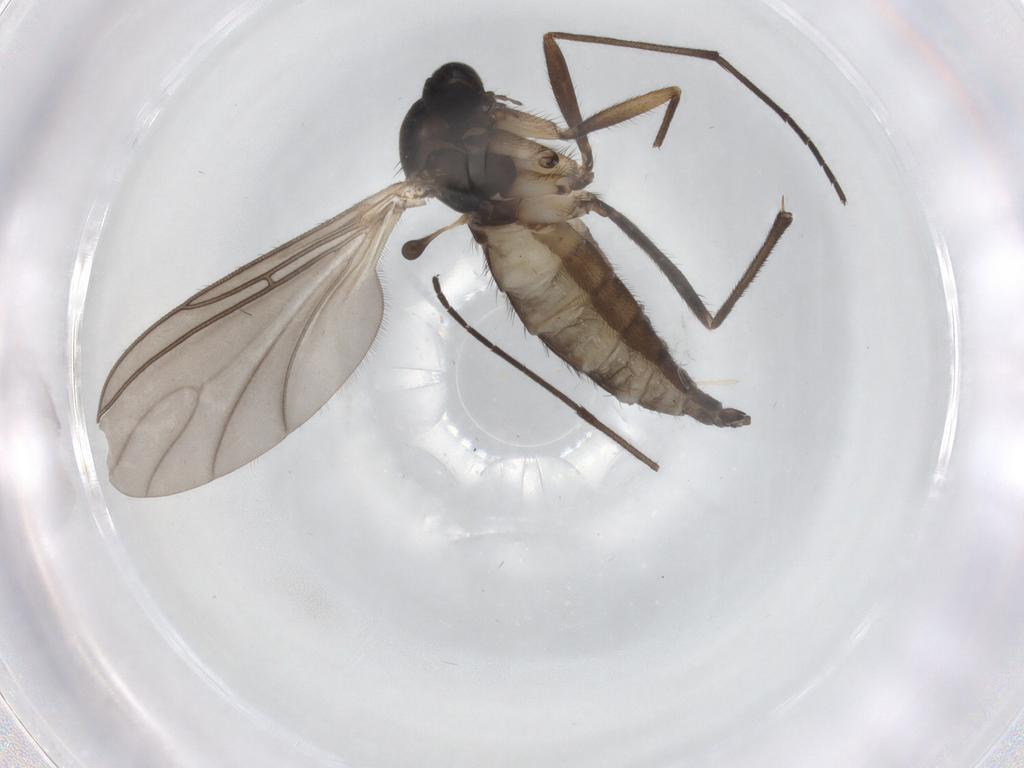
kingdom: Animalia
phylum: Arthropoda
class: Insecta
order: Diptera
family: Sciaridae
